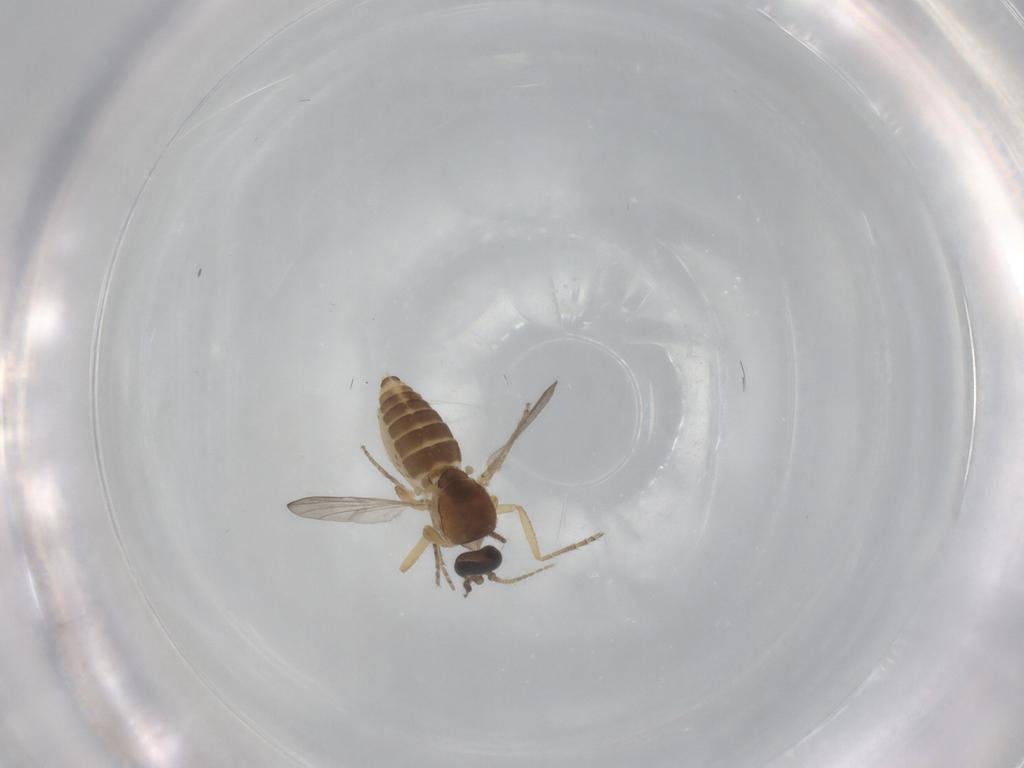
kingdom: Animalia
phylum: Arthropoda
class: Insecta
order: Diptera
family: Ceratopogonidae
